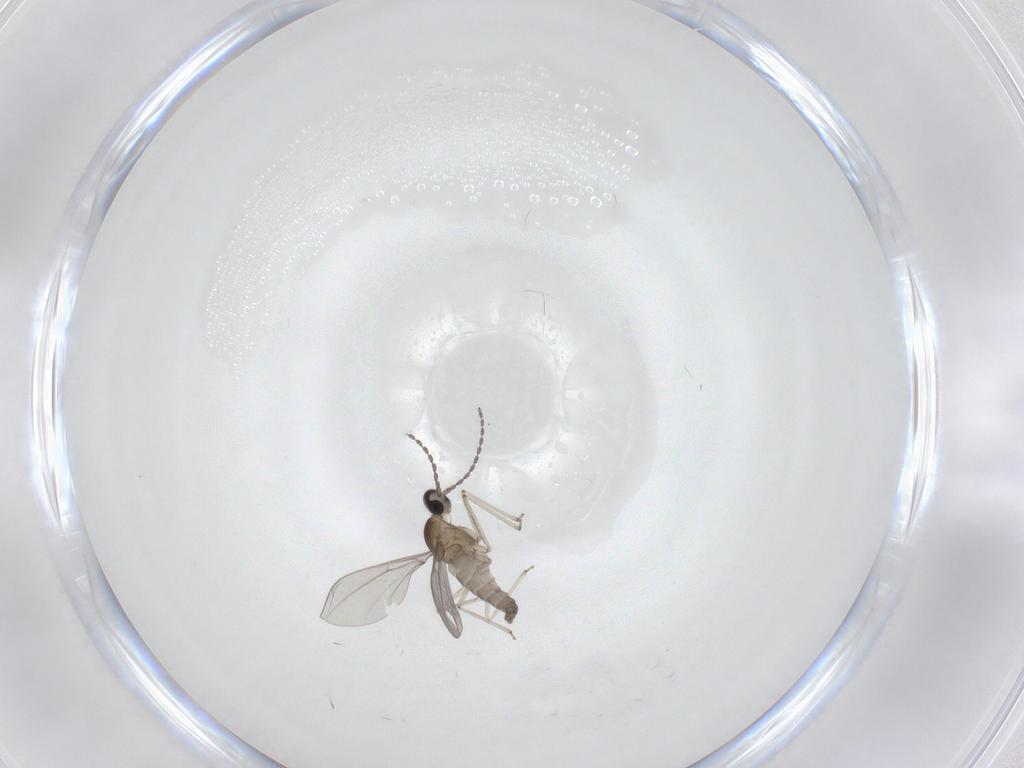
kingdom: Animalia
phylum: Arthropoda
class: Insecta
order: Diptera
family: Cecidomyiidae
